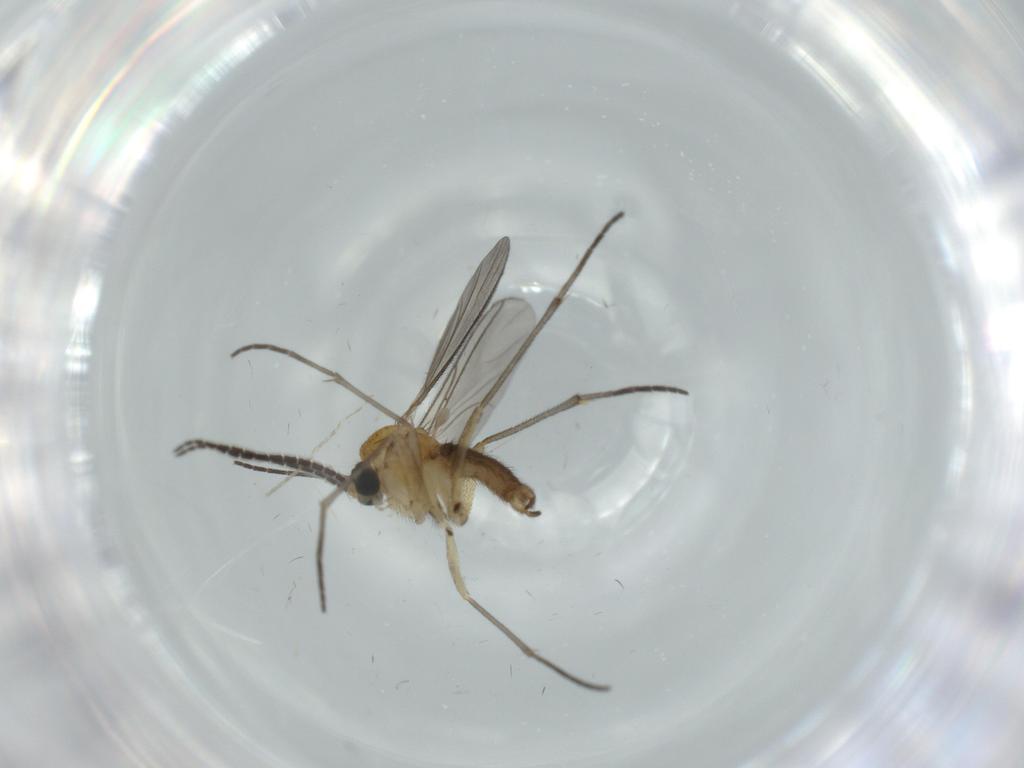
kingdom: Animalia
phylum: Arthropoda
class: Insecta
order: Diptera
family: Sciaridae
